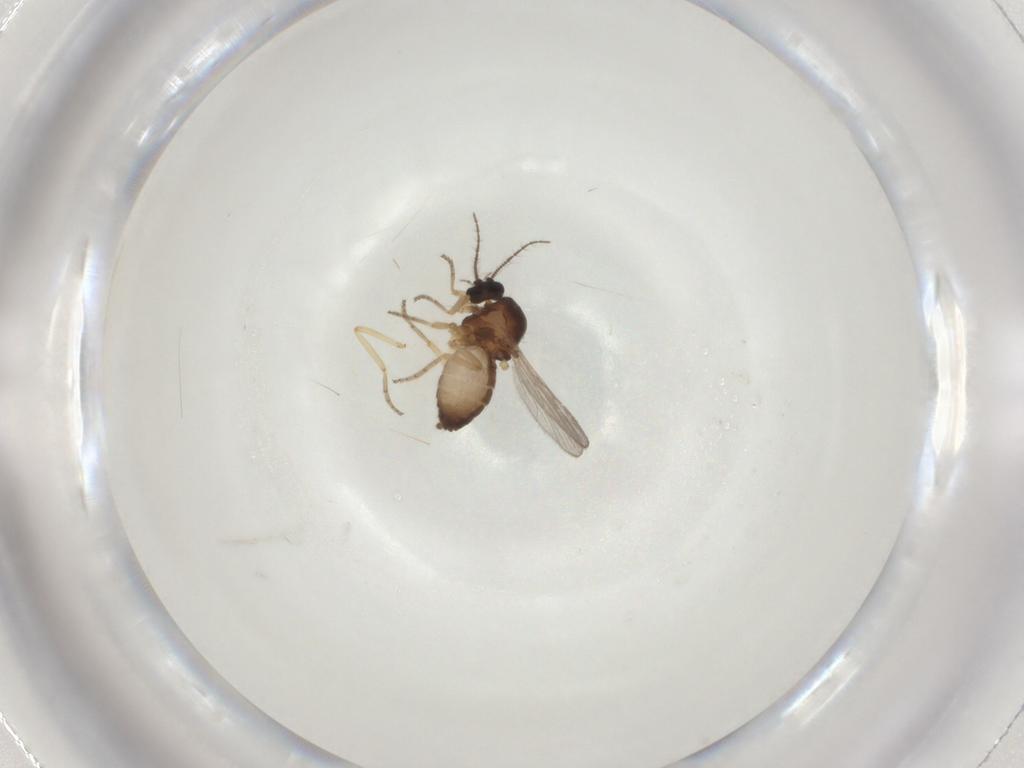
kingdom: Animalia
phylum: Arthropoda
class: Insecta
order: Diptera
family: Ceratopogonidae
